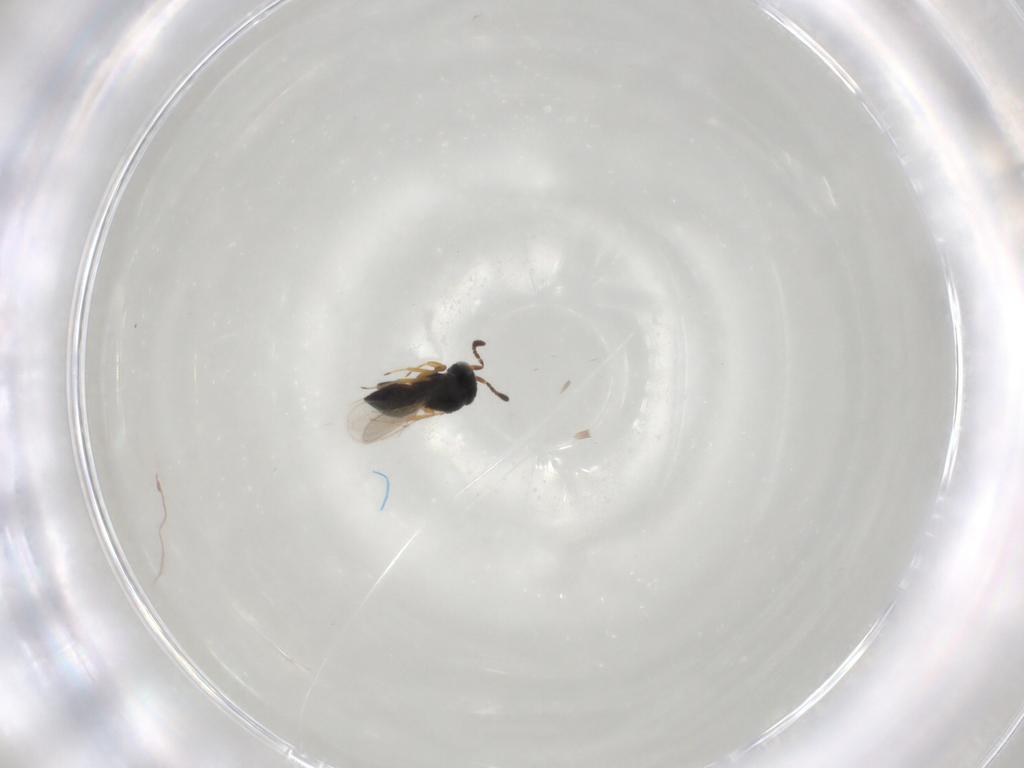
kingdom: Animalia
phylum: Arthropoda
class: Insecta
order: Hymenoptera
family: Scelionidae
